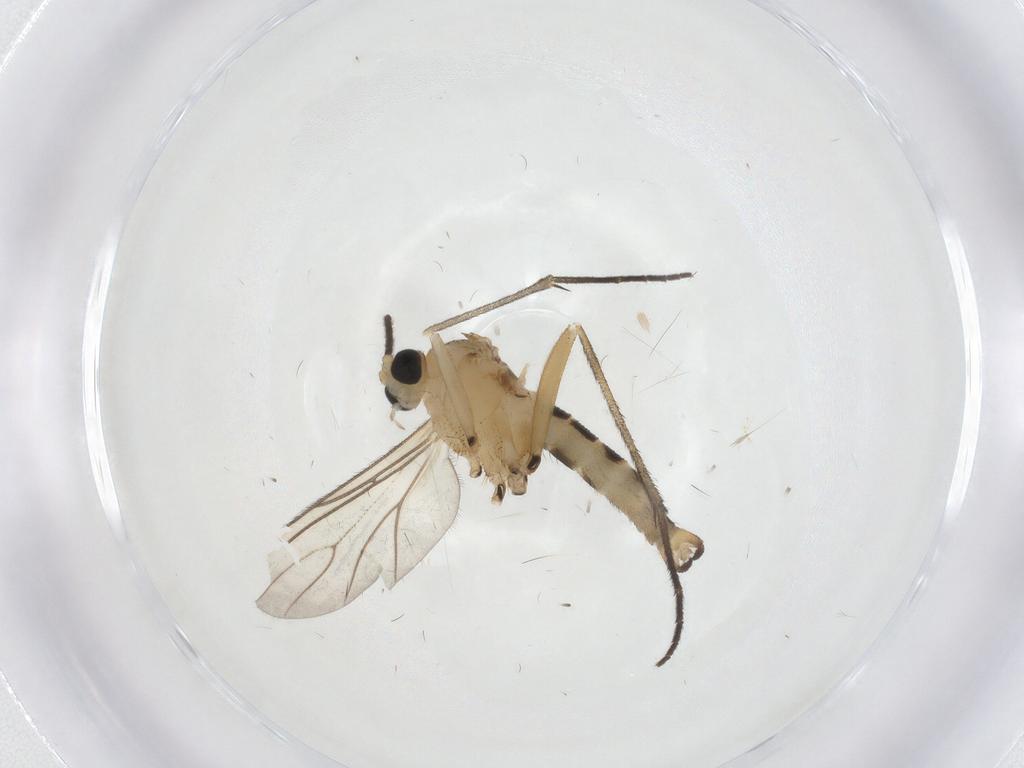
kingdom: Animalia
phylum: Arthropoda
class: Insecta
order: Diptera
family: Sciaridae
